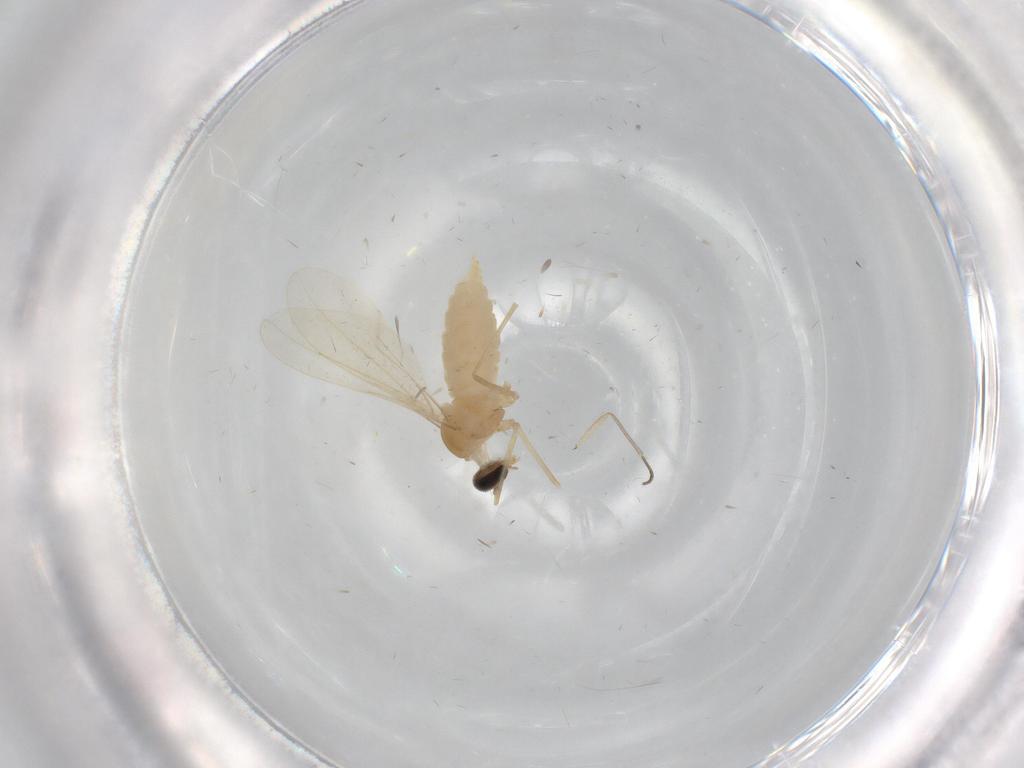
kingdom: Animalia
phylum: Arthropoda
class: Insecta
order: Diptera
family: Cecidomyiidae
